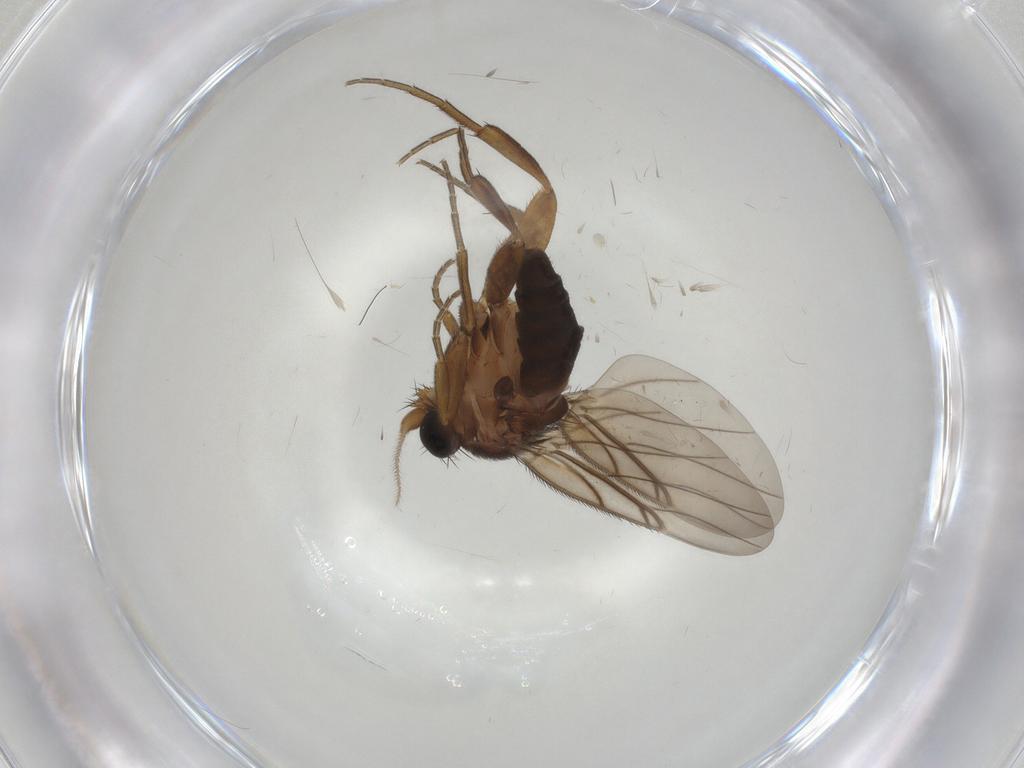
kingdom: Animalia
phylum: Arthropoda
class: Insecta
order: Diptera
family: Phoridae
